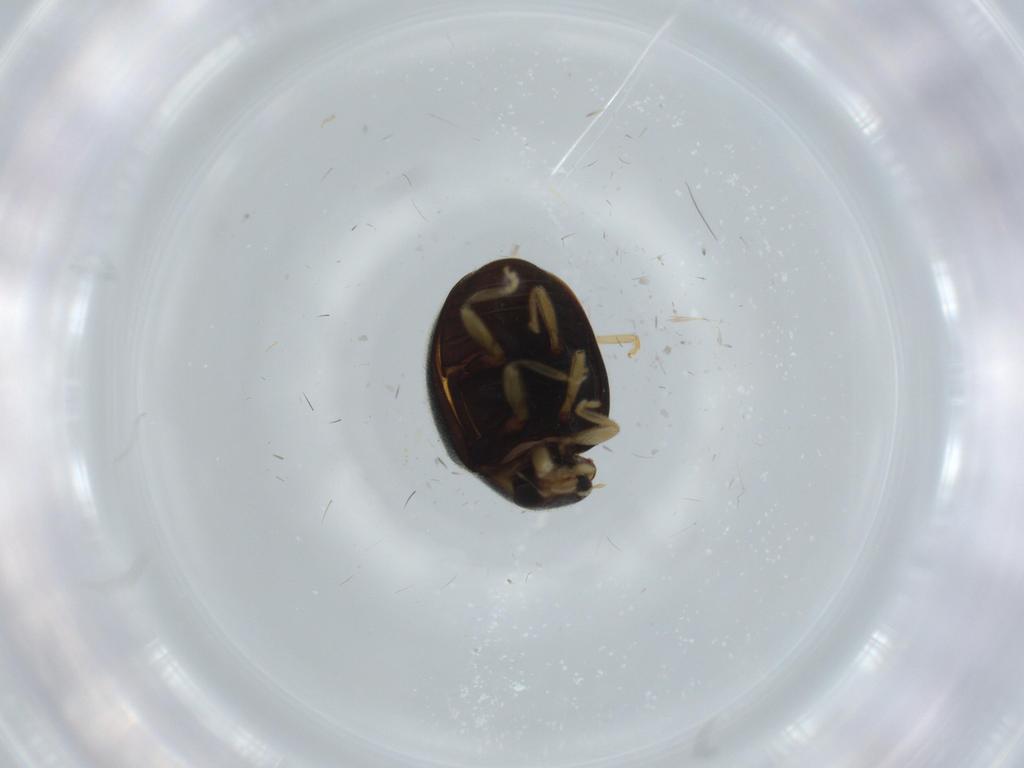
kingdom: Animalia
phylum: Arthropoda
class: Insecta
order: Coleoptera
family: Coccinellidae
